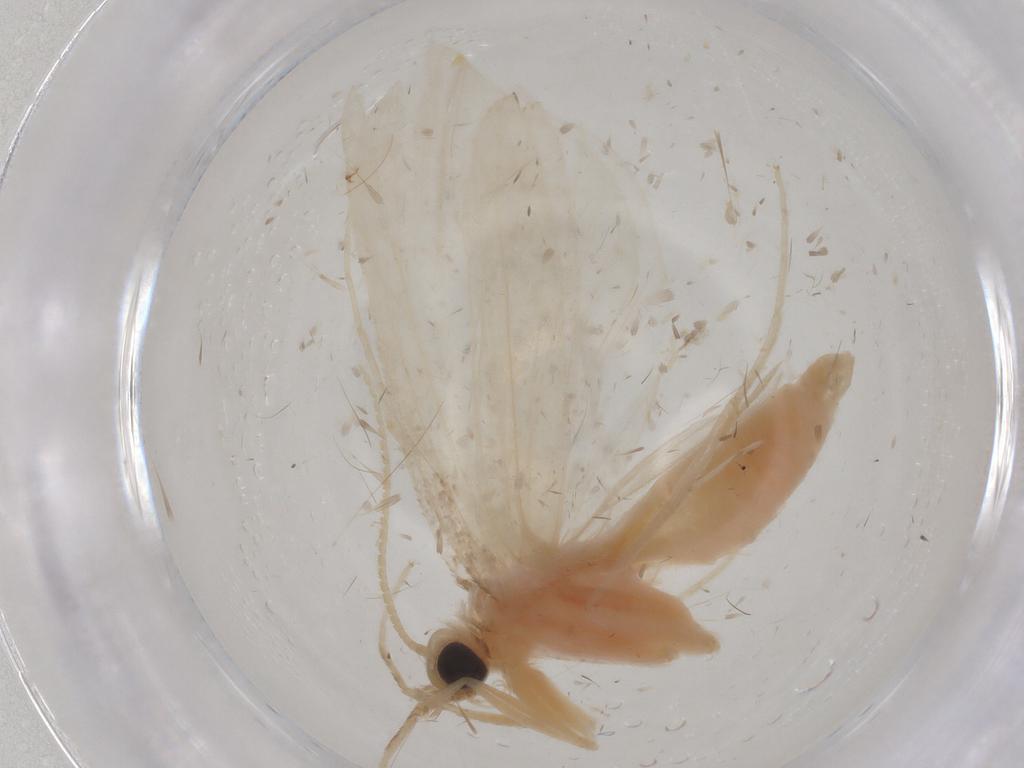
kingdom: Animalia
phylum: Arthropoda
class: Insecta
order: Lepidoptera
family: Crambidae
